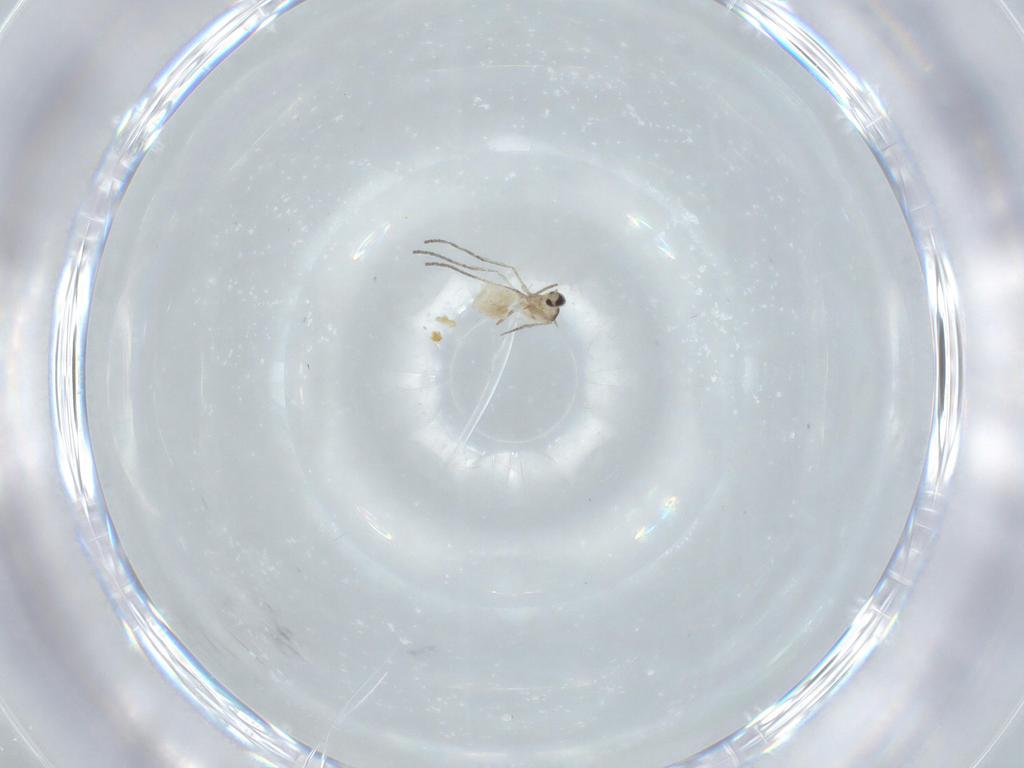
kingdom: Animalia
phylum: Arthropoda
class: Insecta
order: Diptera
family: Cecidomyiidae
